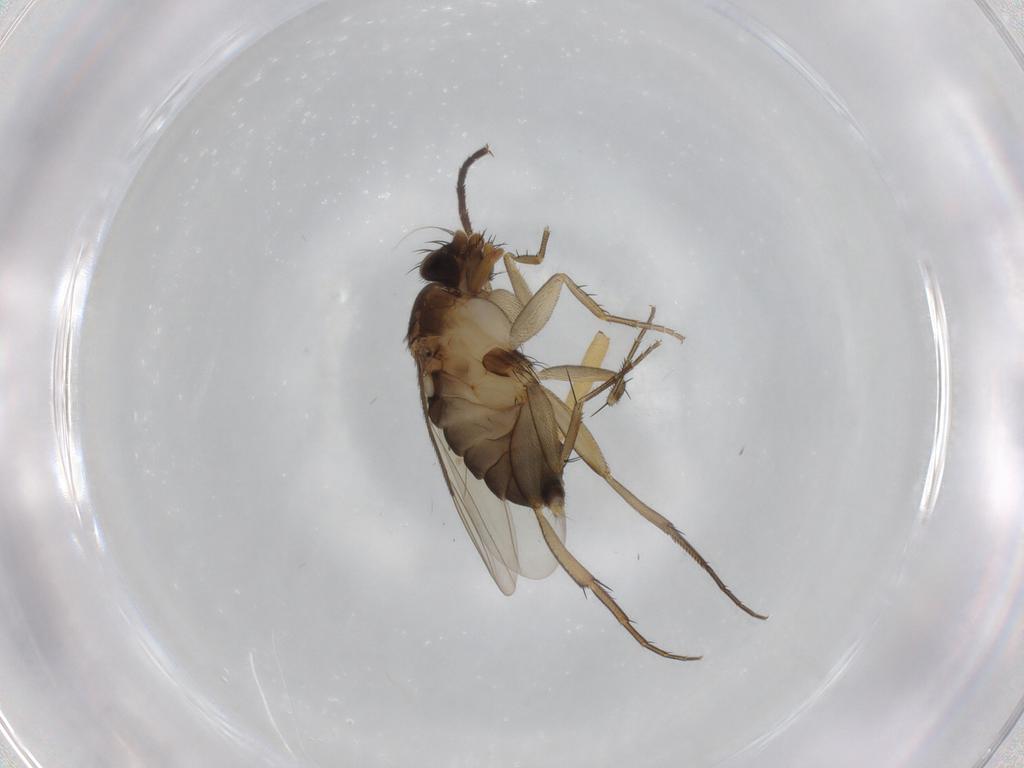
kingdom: Animalia
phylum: Arthropoda
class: Insecta
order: Diptera
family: Phoridae
